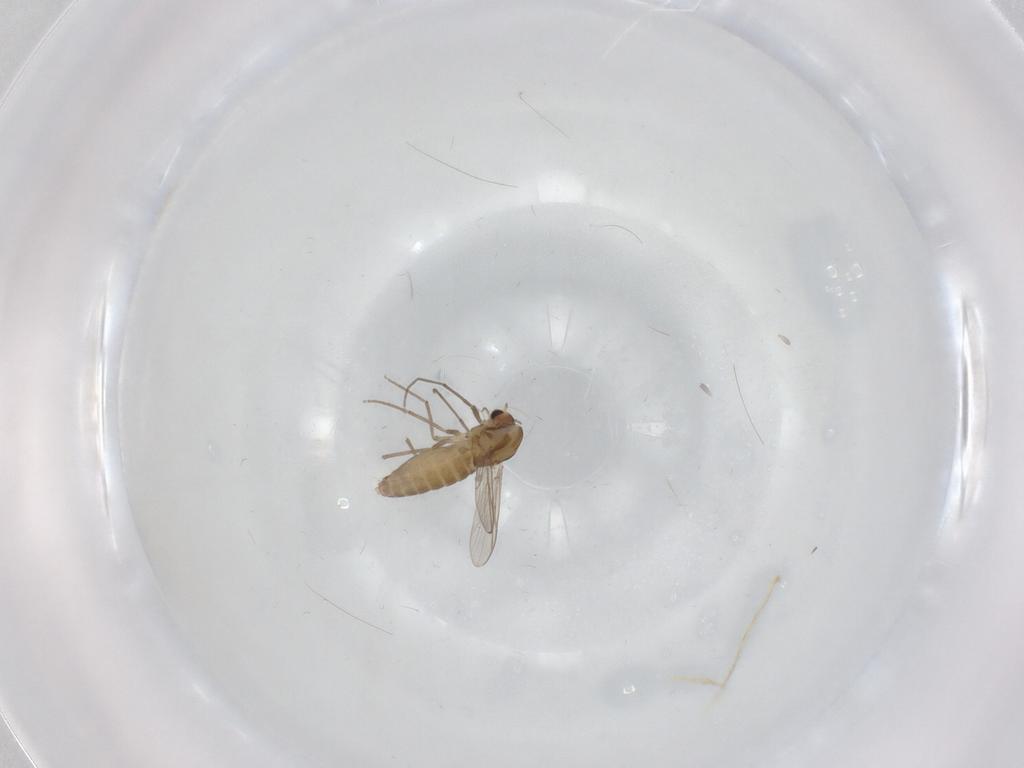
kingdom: Animalia
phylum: Arthropoda
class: Insecta
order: Diptera
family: Chironomidae
